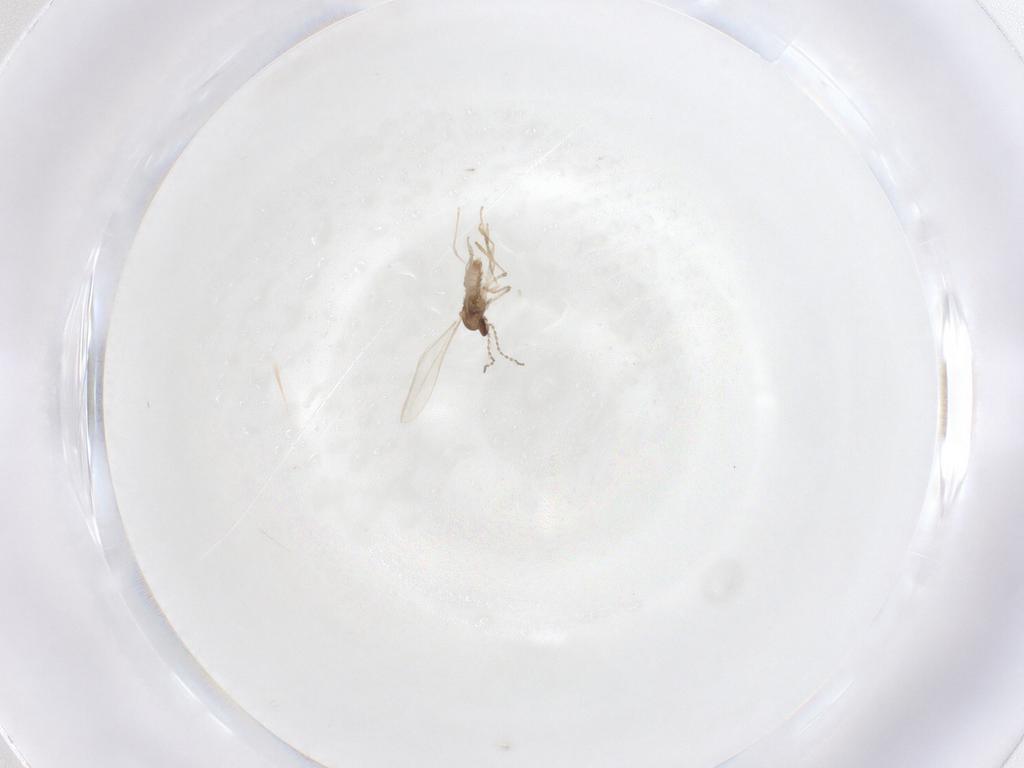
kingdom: Animalia
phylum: Arthropoda
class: Insecta
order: Diptera
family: Cecidomyiidae
